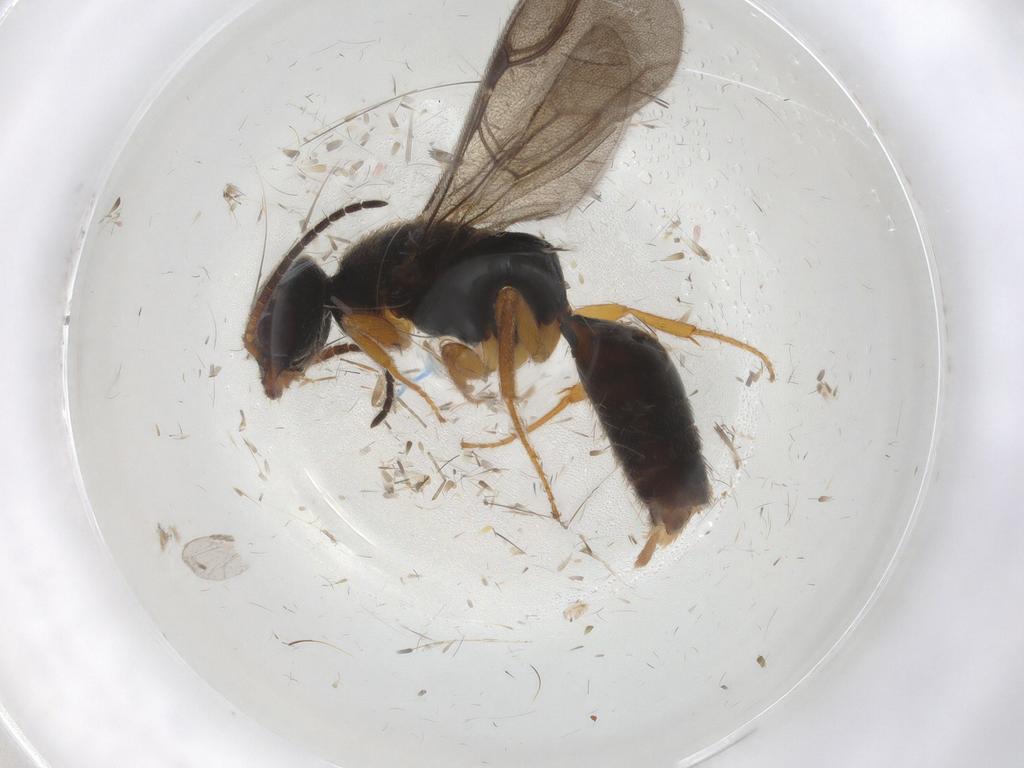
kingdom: Animalia
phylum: Arthropoda
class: Insecta
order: Hymenoptera
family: Bethylidae
